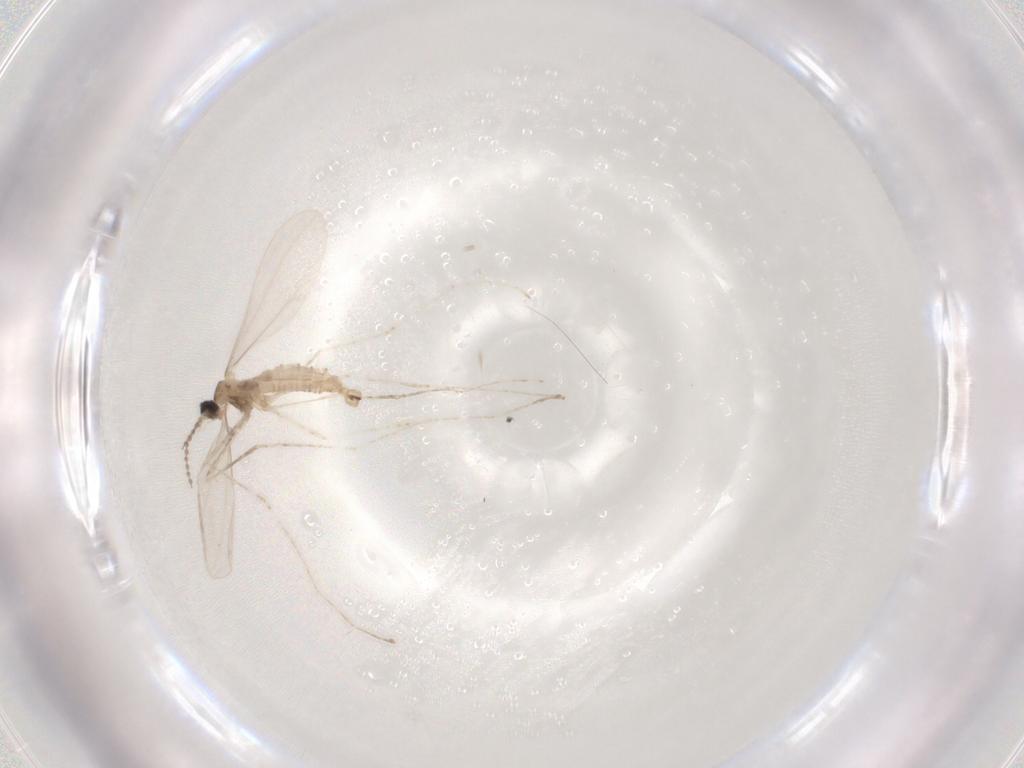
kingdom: Animalia
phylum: Arthropoda
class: Insecta
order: Diptera
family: Cecidomyiidae
